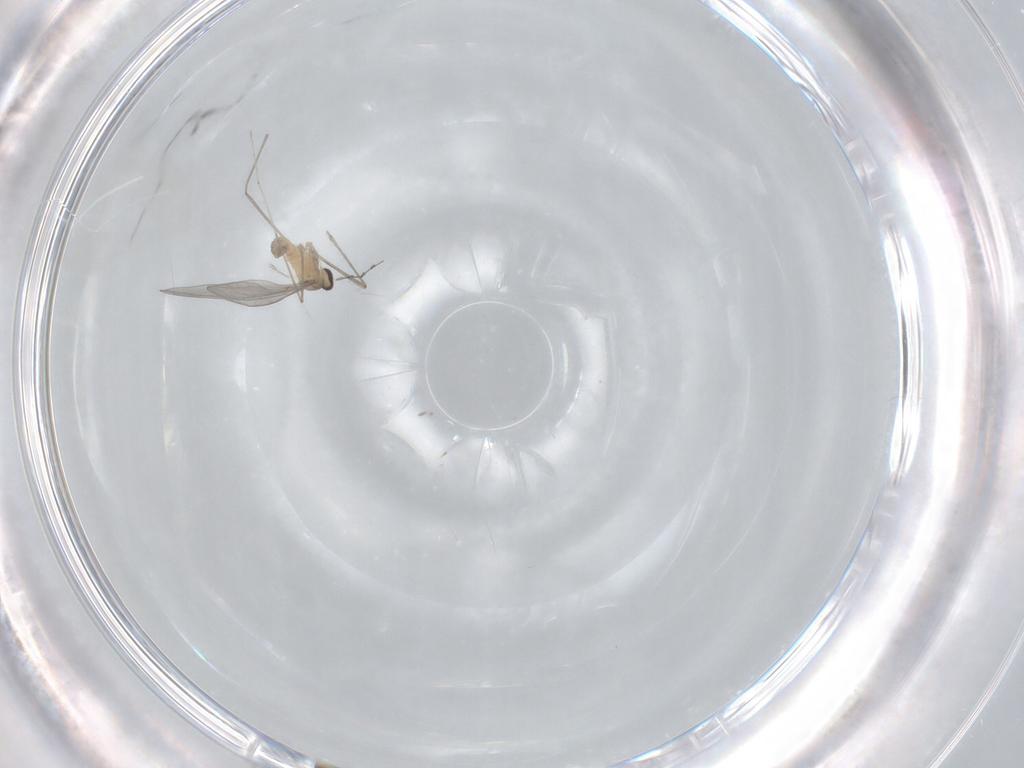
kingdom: Animalia
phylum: Arthropoda
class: Insecta
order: Diptera
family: Cecidomyiidae
